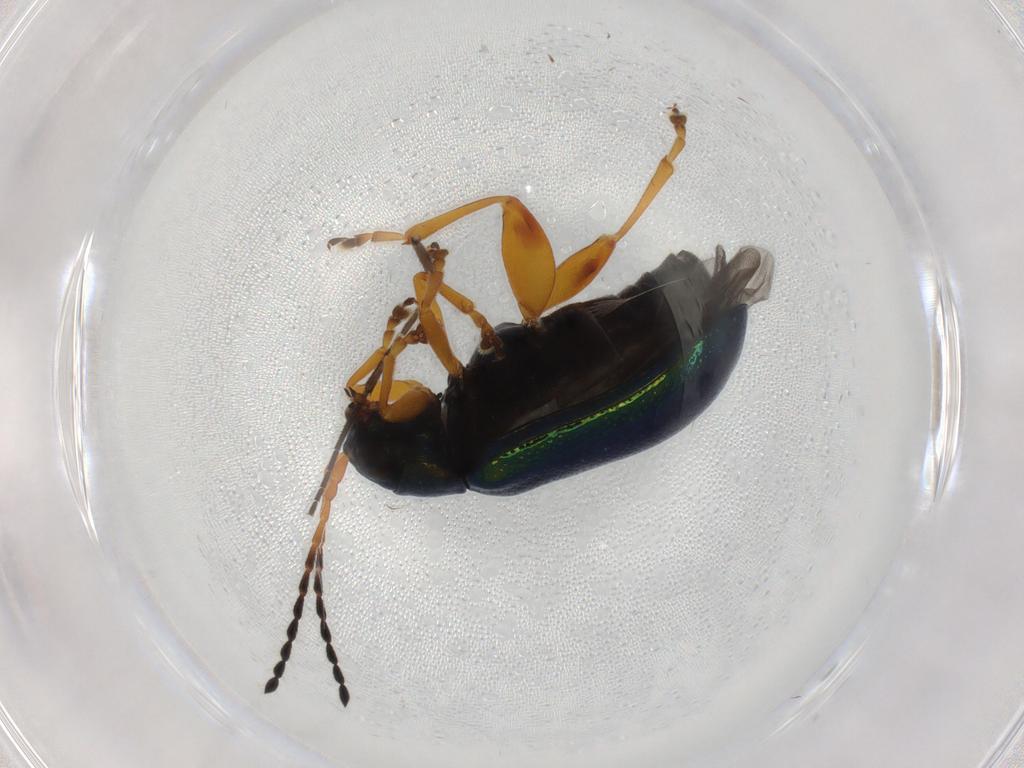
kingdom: Animalia
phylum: Arthropoda
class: Insecta
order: Coleoptera
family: Chrysomelidae
